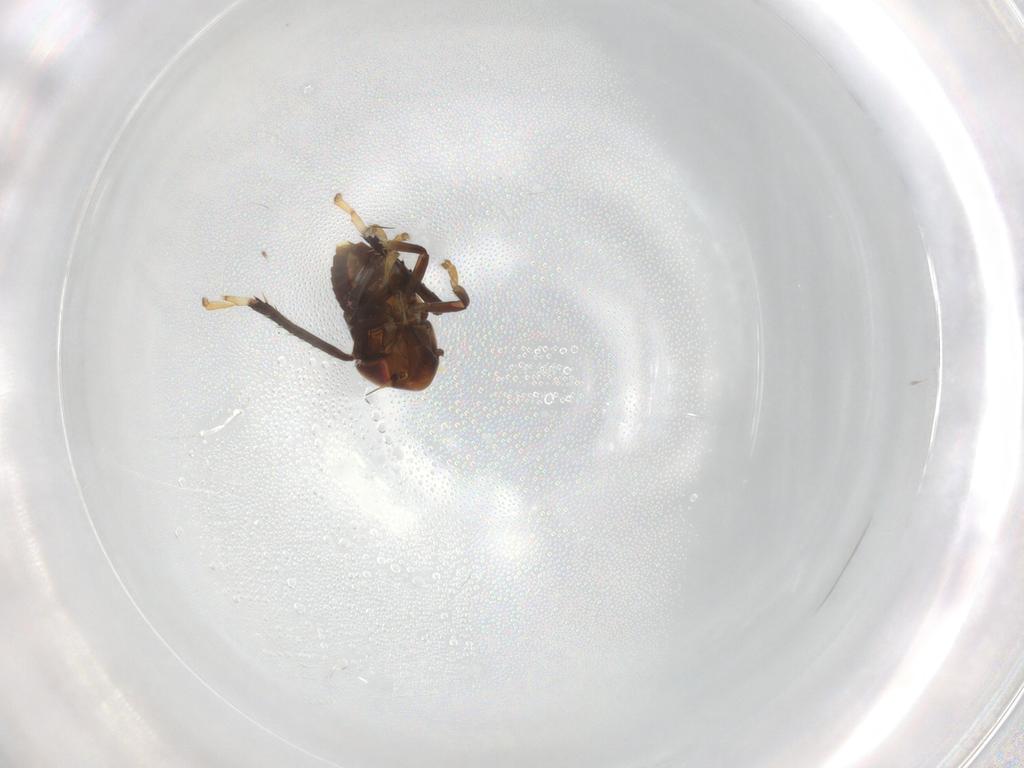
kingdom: Animalia
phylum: Arthropoda
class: Insecta
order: Hemiptera
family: Cicadellidae
